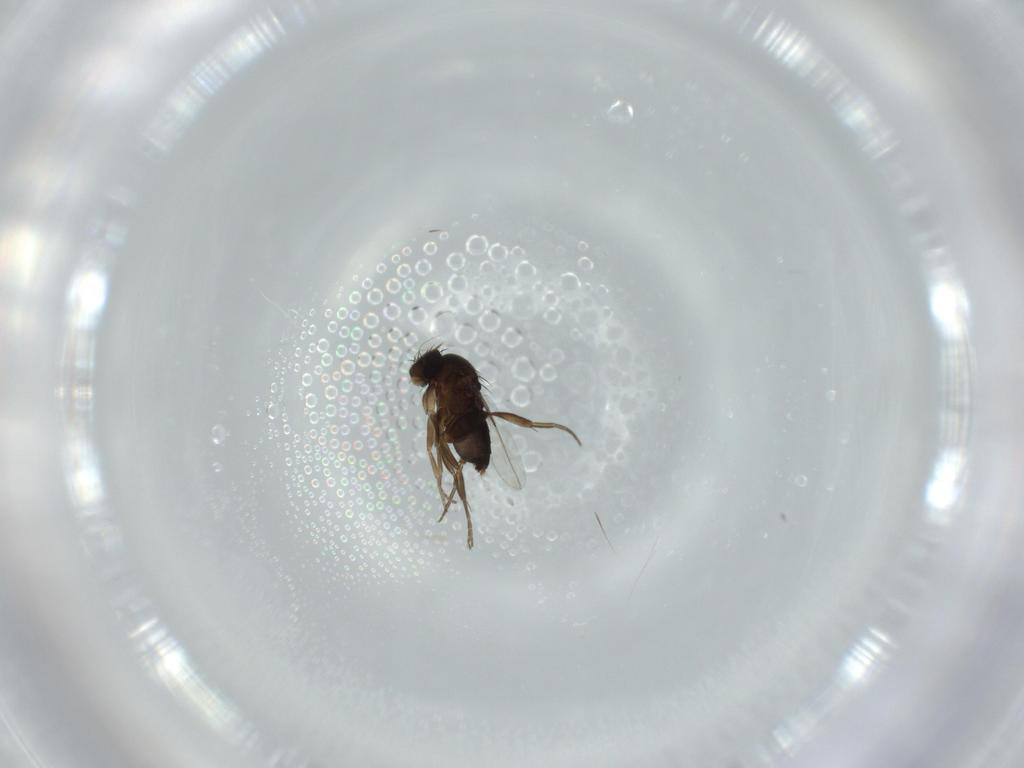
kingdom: Animalia
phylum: Arthropoda
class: Insecta
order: Diptera
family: Phoridae
